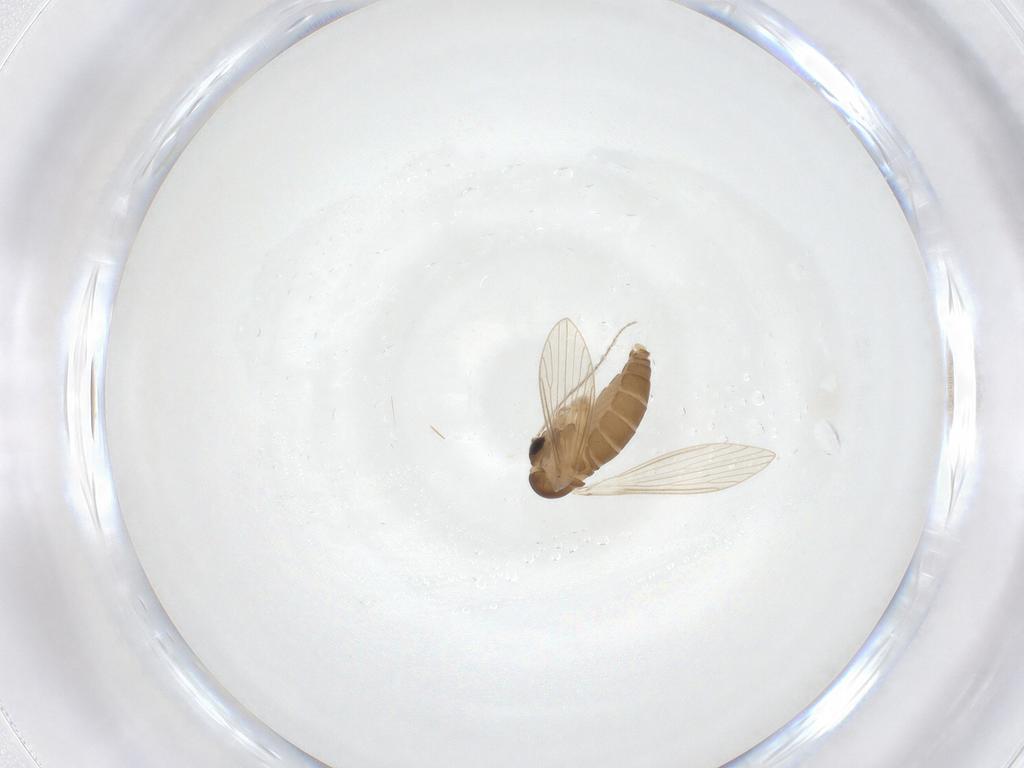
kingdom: Animalia
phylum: Arthropoda
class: Insecta
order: Diptera
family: Psychodidae
